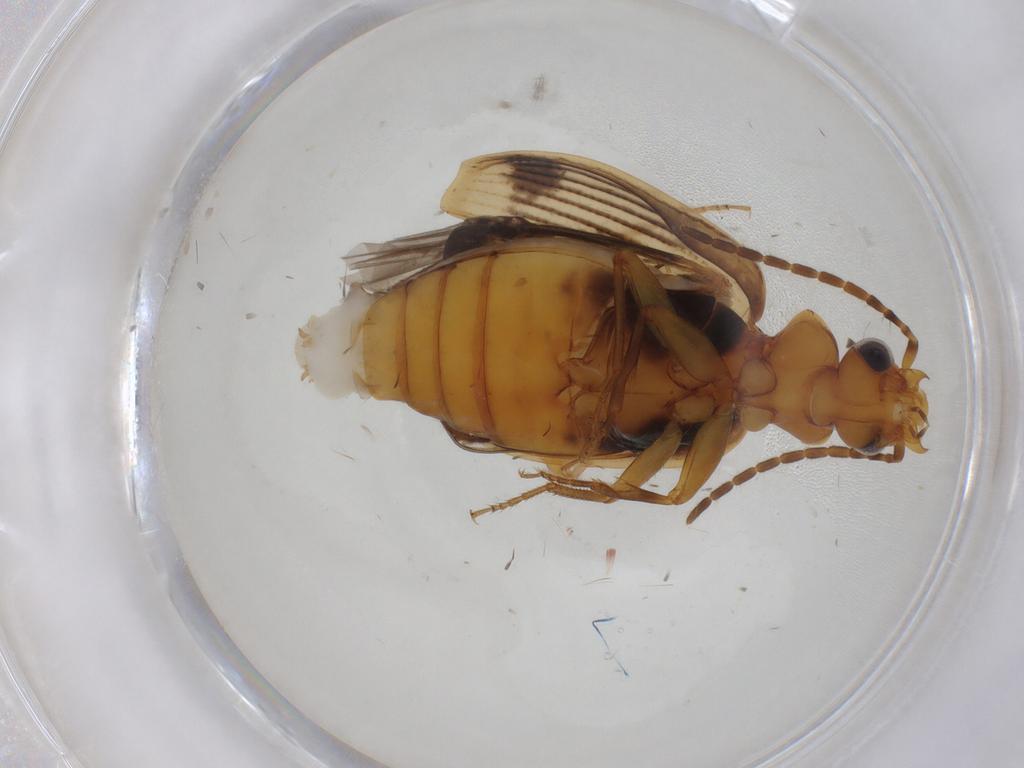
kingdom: Animalia
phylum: Arthropoda
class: Insecta
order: Coleoptera
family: Carabidae
